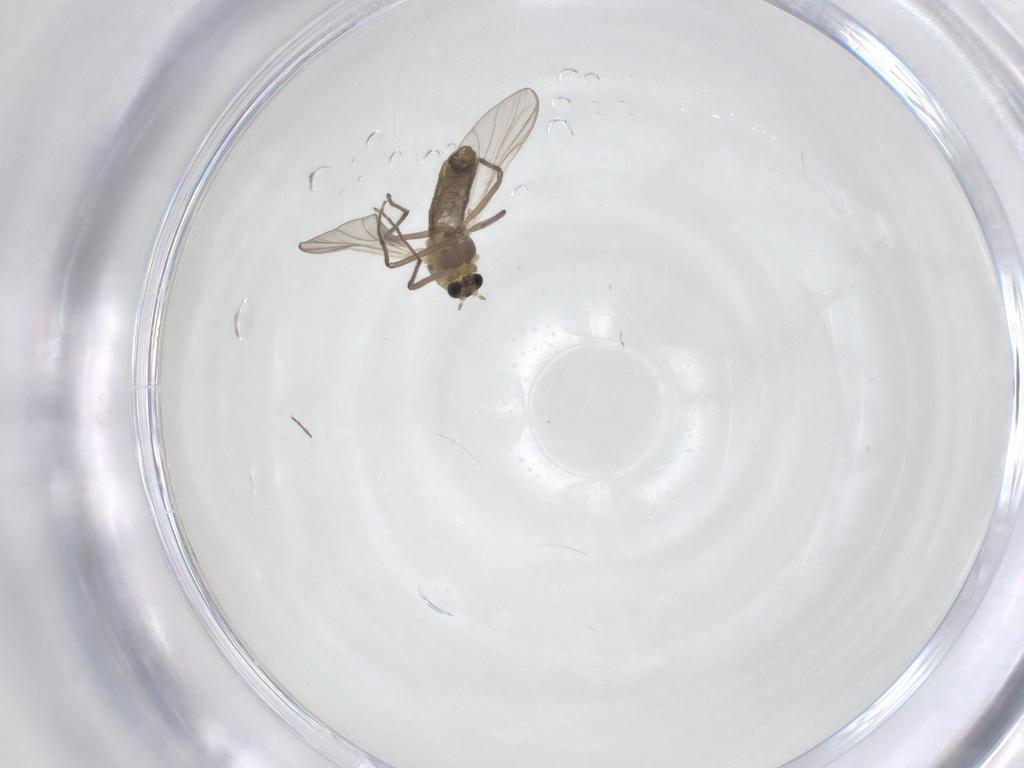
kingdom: Animalia
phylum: Arthropoda
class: Insecta
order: Diptera
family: Chironomidae
